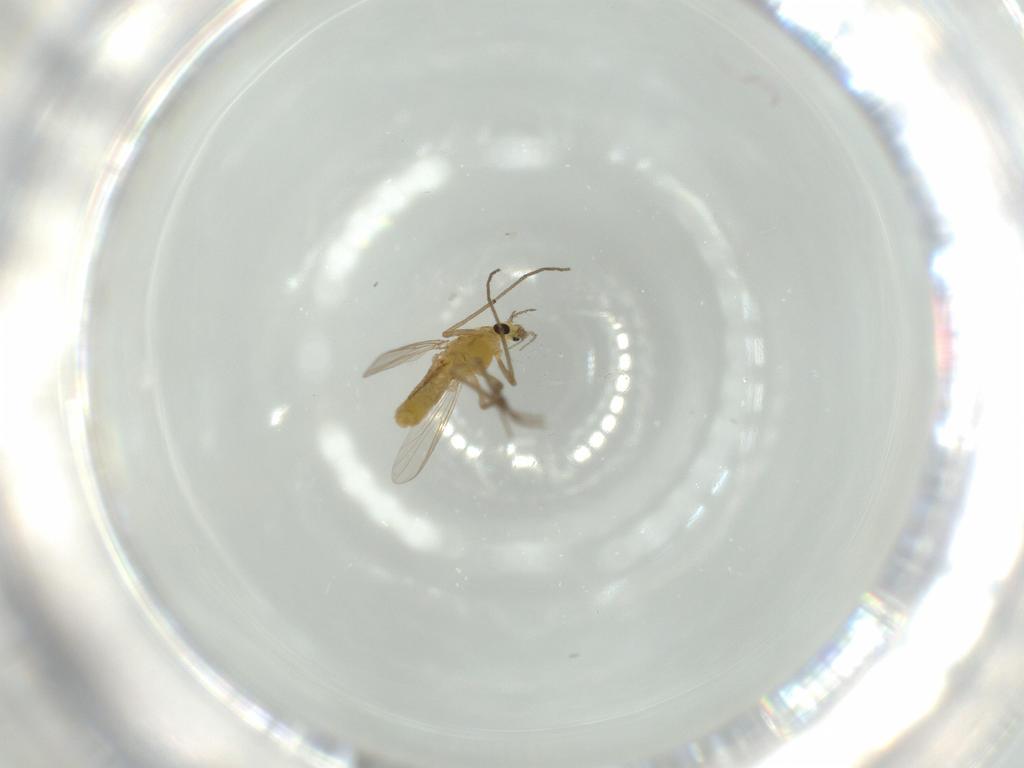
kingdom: Animalia
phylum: Arthropoda
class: Insecta
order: Diptera
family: Chironomidae
